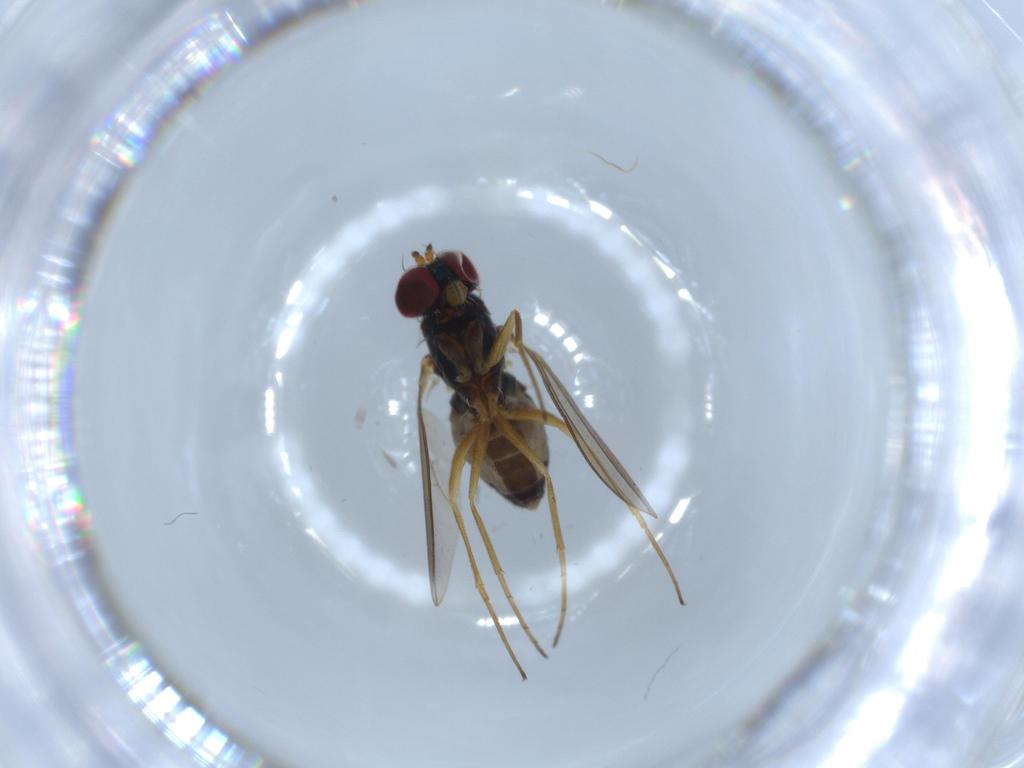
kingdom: Animalia
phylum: Arthropoda
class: Insecta
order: Diptera
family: Dolichopodidae
